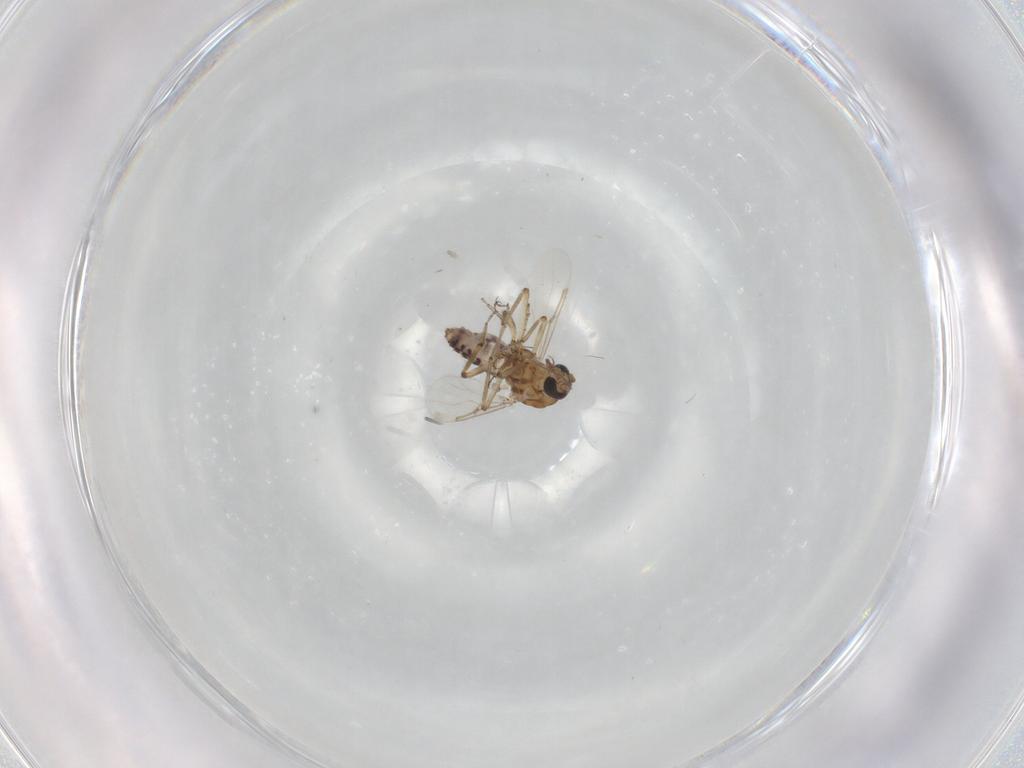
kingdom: Animalia
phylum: Arthropoda
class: Insecta
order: Diptera
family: Ceratopogonidae
